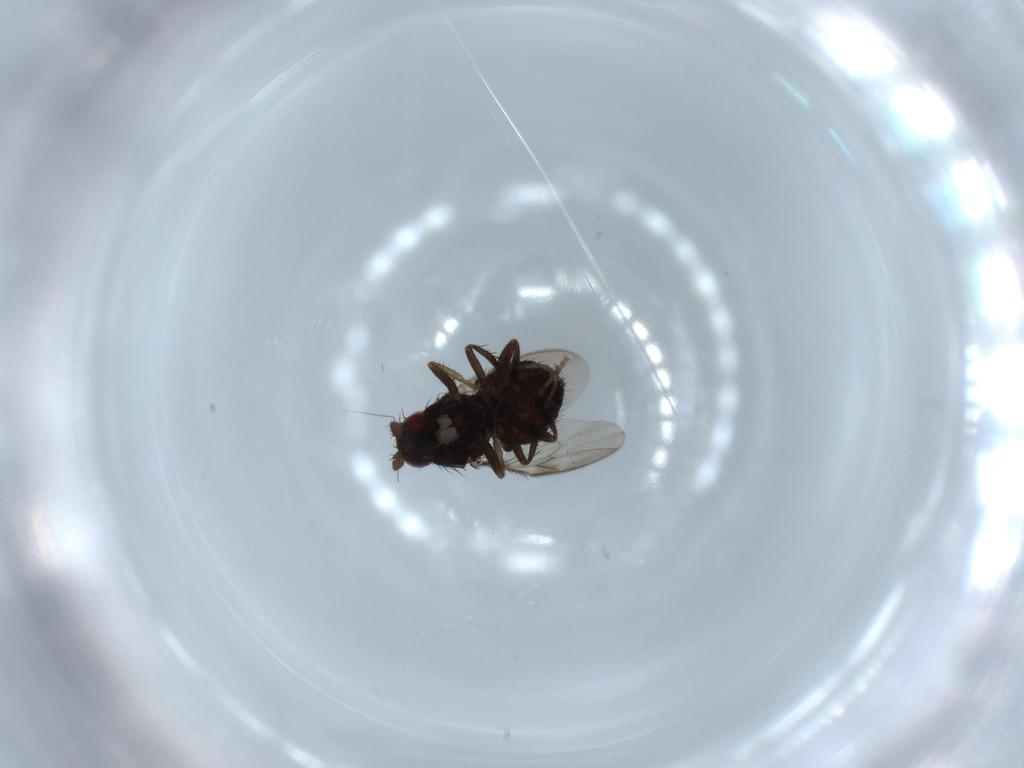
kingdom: Animalia
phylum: Arthropoda
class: Insecta
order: Diptera
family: Sphaeroceridae
